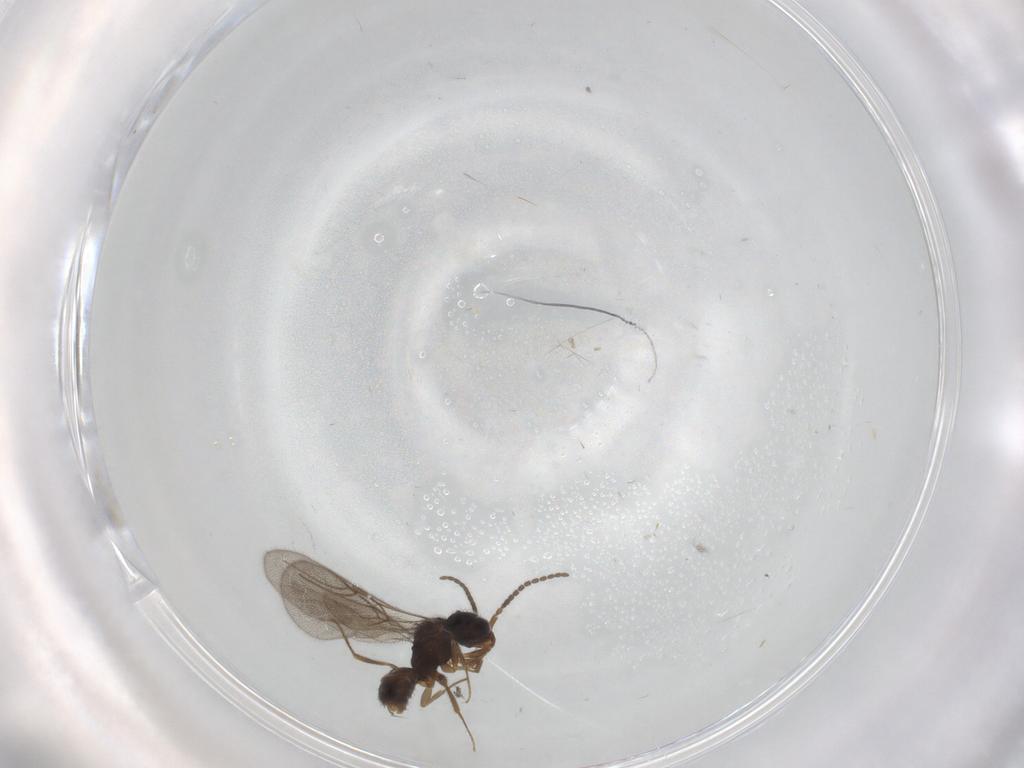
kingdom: Animalia
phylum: Arthropoda
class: Insecta
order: Hymenoptera
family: Bethylidae
